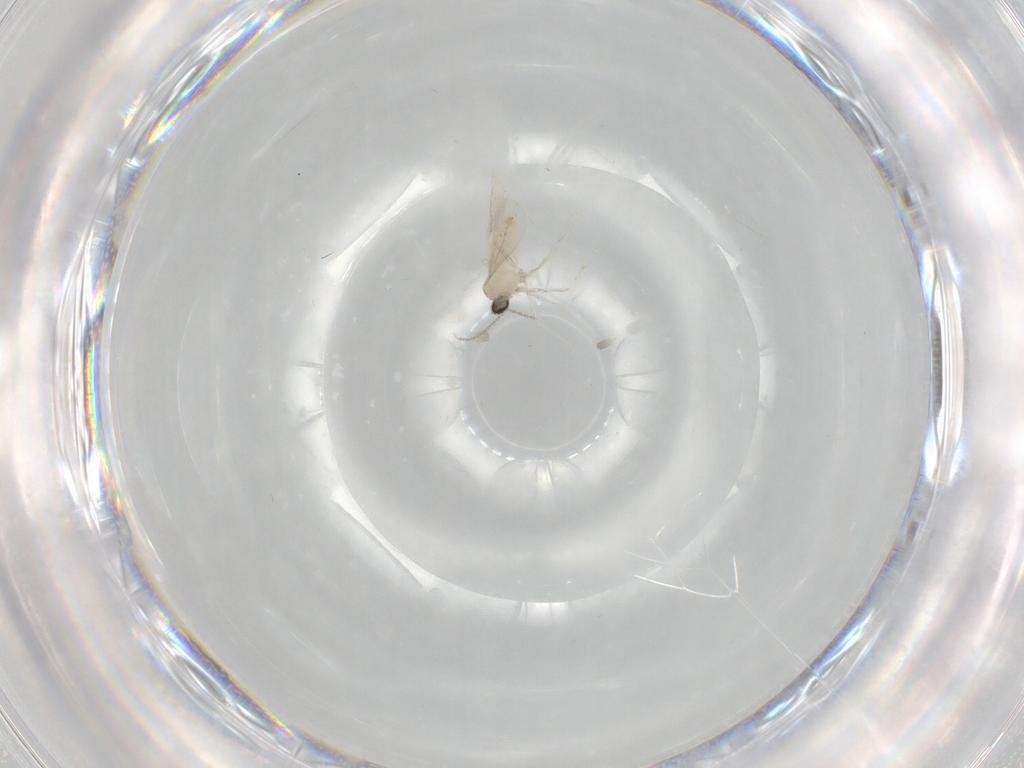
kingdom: Animalia
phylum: Arthropoda
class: Insecta
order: Diptera
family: Cecidomyiidae
